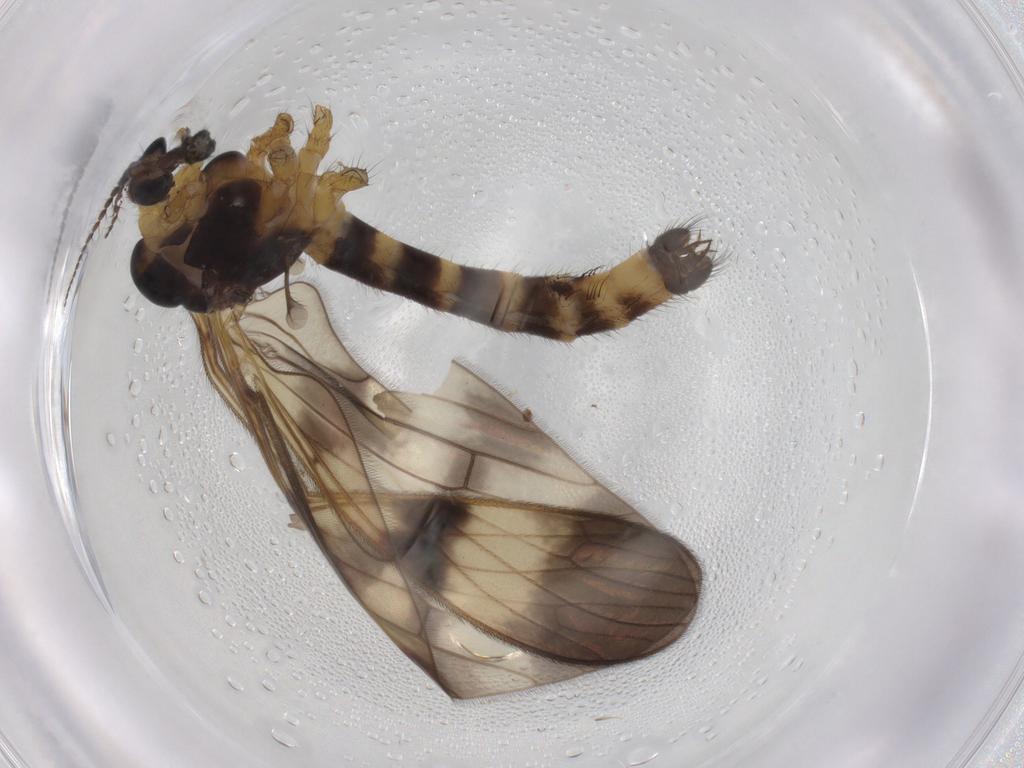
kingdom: Animalia
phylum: Arthropoda
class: Insecta
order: Diptera
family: Limoniidae
